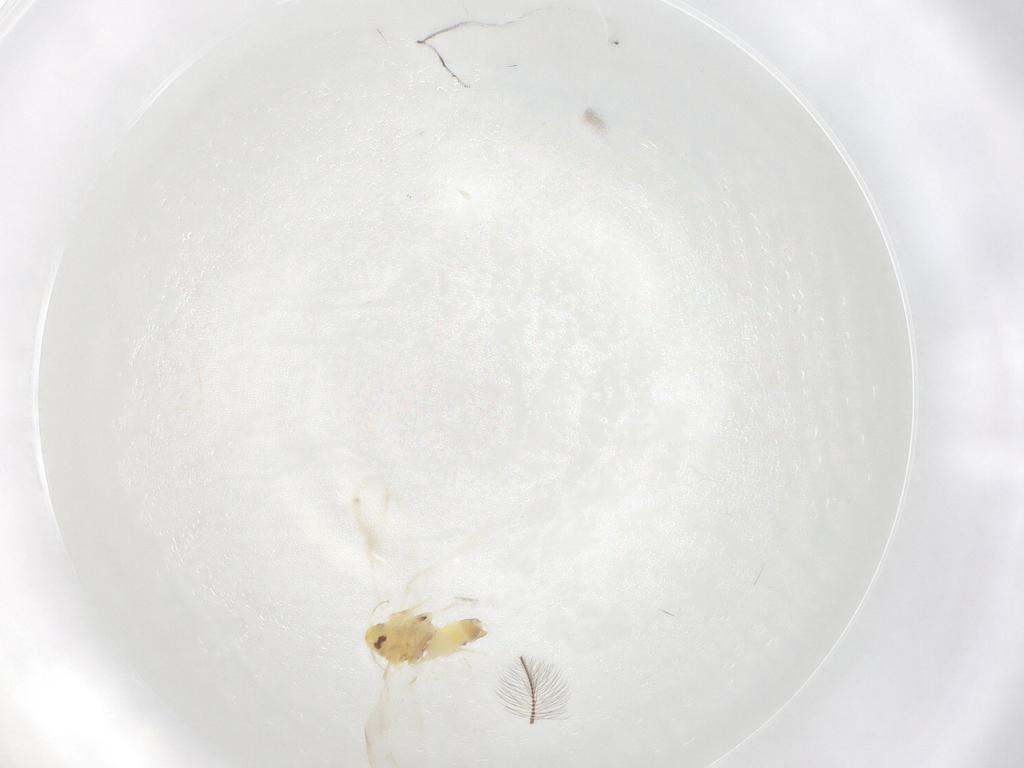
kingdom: Animalia
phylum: Arthropoda
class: Insecta
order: Hemiptera
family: Aleyrodidae
